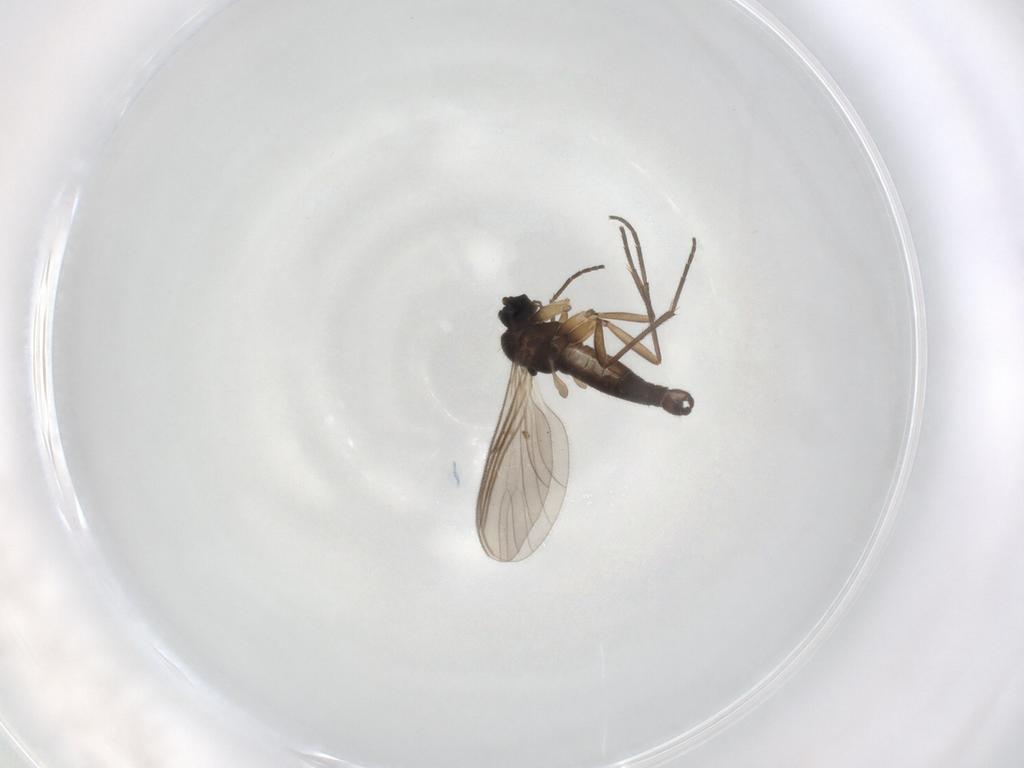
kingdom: Animalia
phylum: Arthropoda
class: Insecta
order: Diptera
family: Sciaridae
